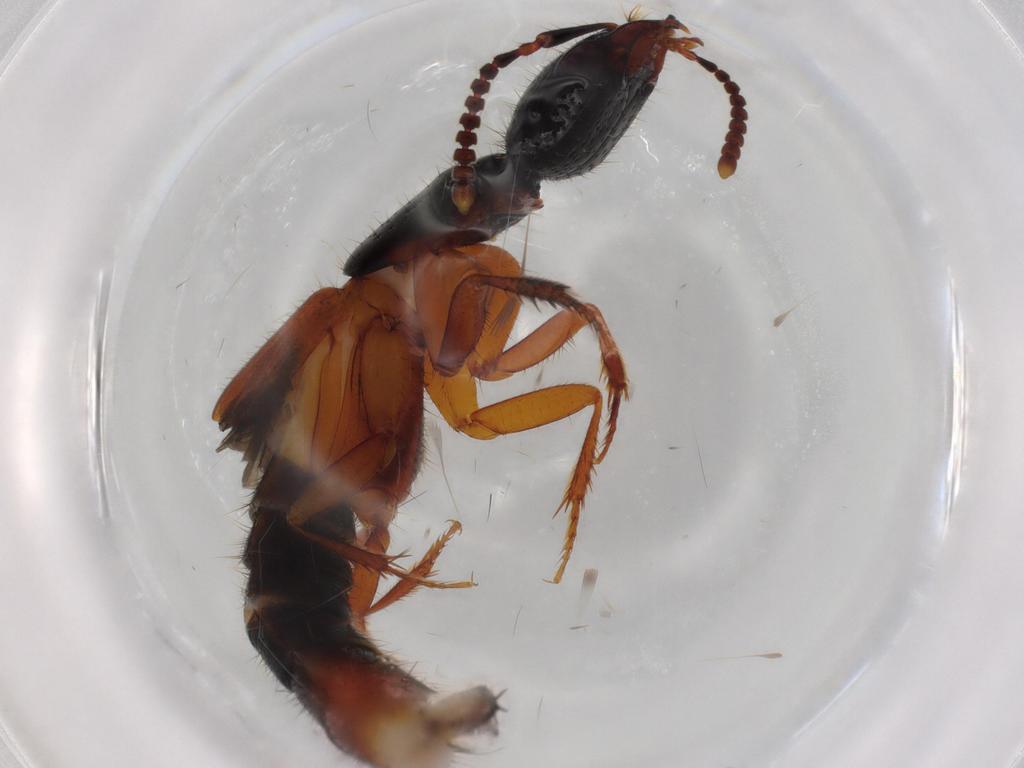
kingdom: Animalia
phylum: Arthropoda
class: Insecta
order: Coleoptera
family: Staphylinidae
